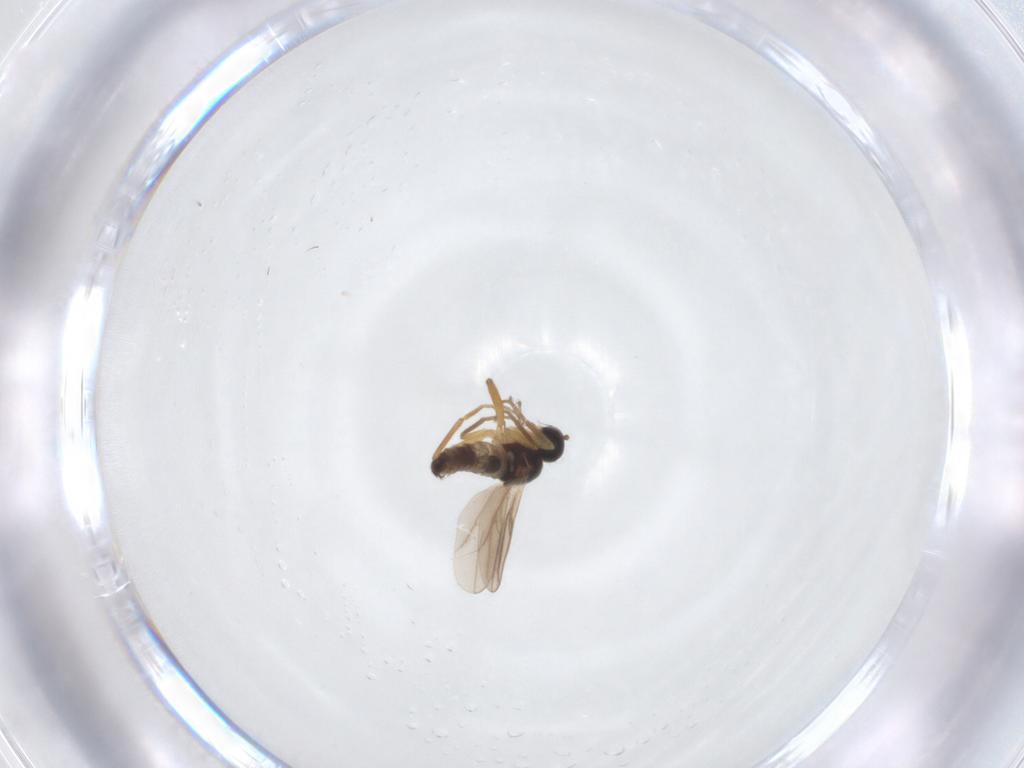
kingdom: Animalia
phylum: Arthropoda
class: Insecta
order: Diptera
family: Hybotidae
